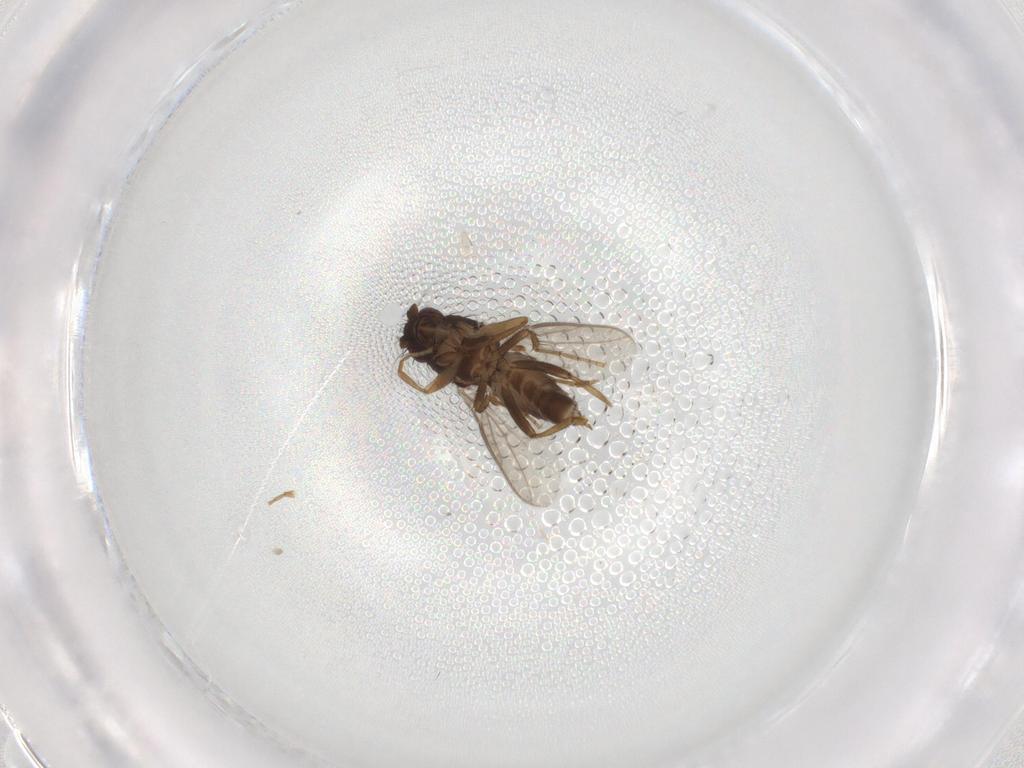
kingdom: Animalia
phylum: Arthropoda
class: Insecta
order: Diptera
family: Sphaeroceridae
